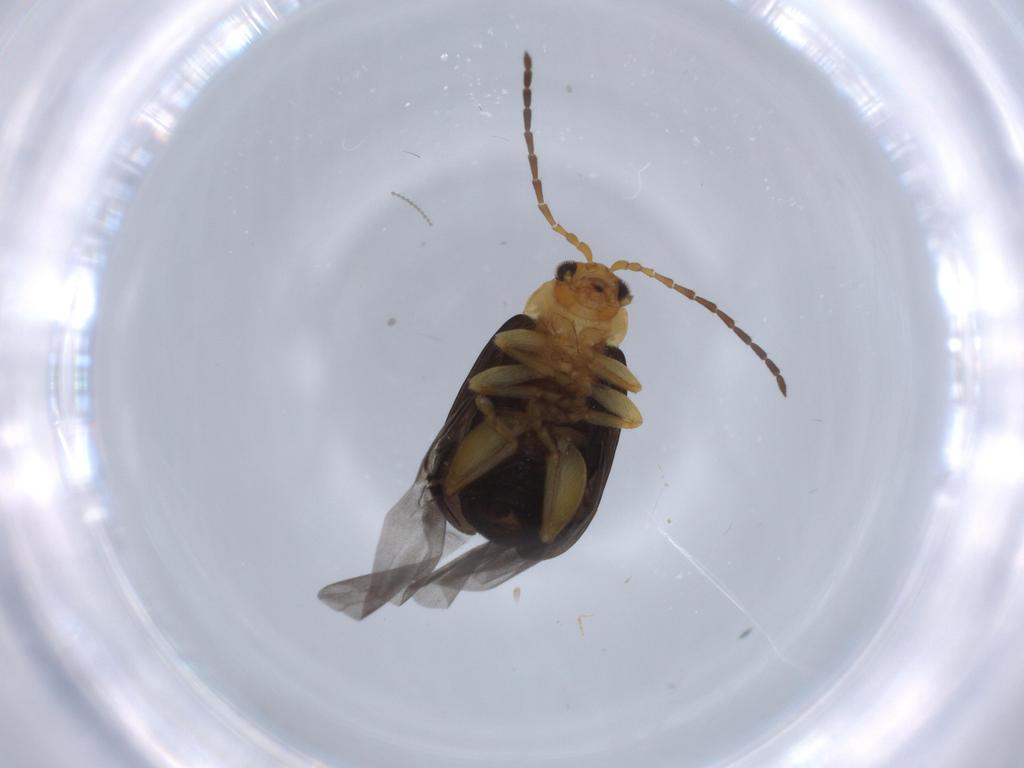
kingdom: Animalia
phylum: Arthropoda
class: Insecta
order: Coleoptera
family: Chrysomelidae
